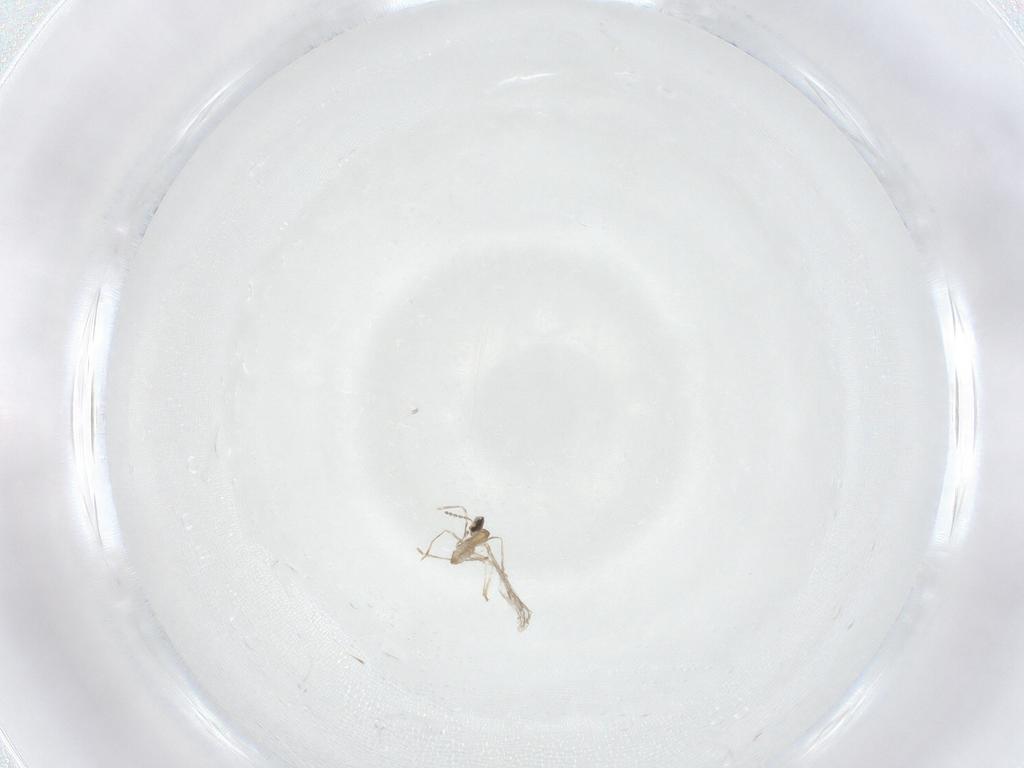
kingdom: Animalia
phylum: Arthropoda
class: Insecta
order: Diptera
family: Cecidomyiidae
